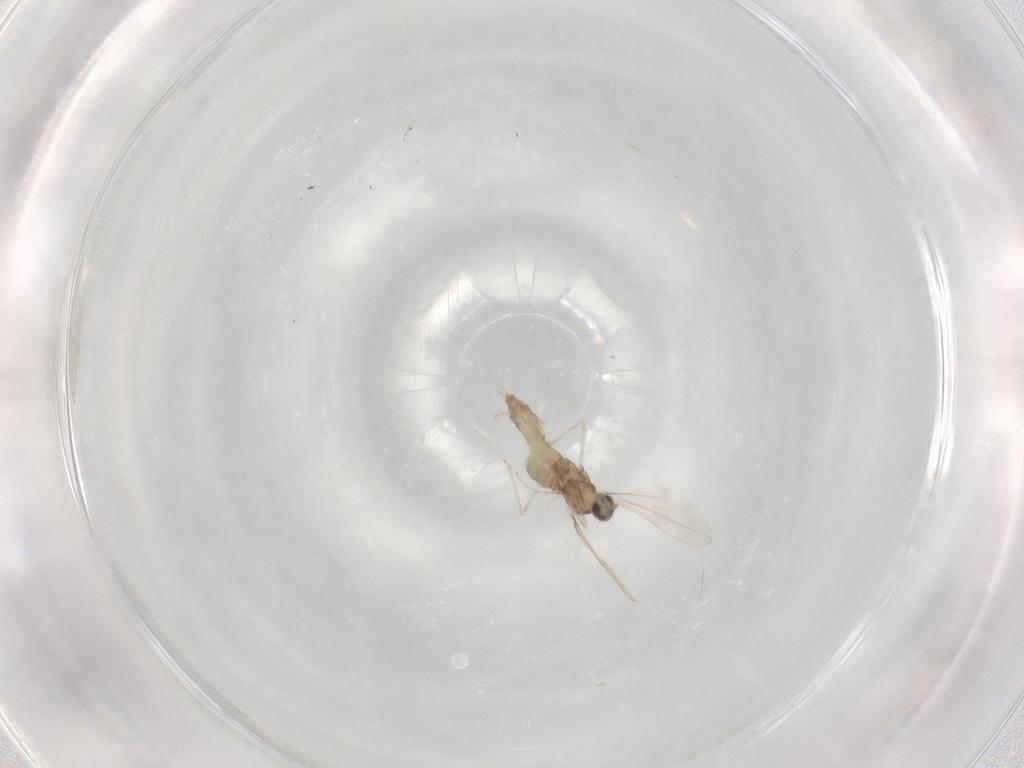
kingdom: Animalia
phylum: Arthropoda
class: Insecta
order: Diptera
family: Cecidomyiidae
